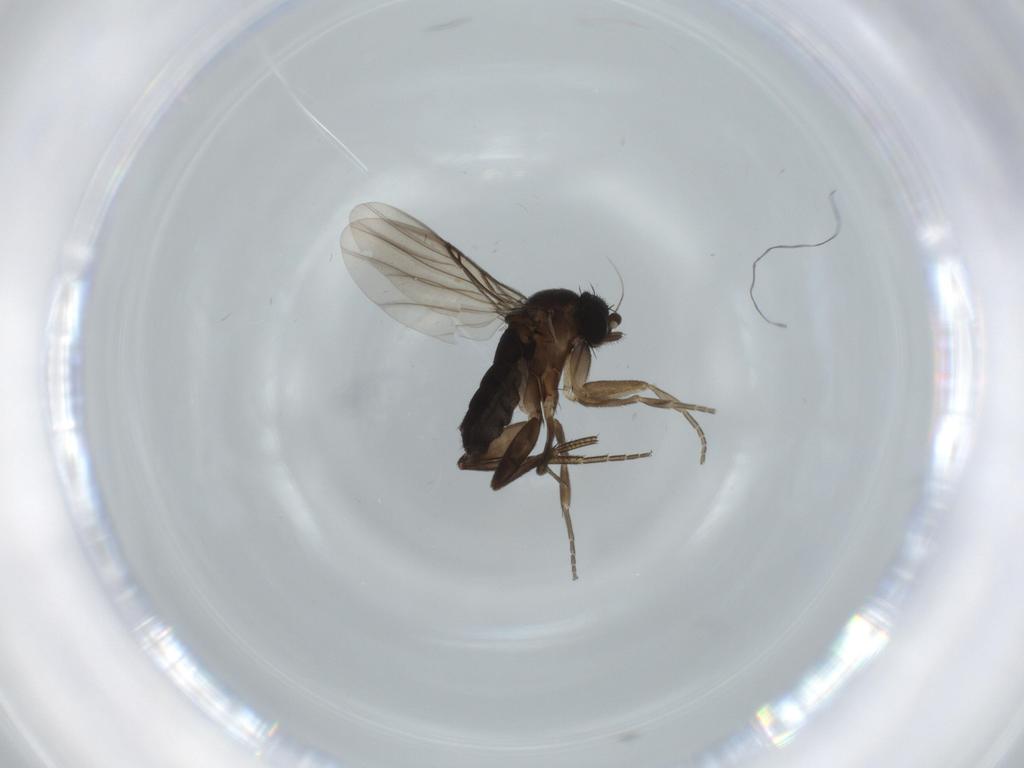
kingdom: Animalia
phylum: Arthropoda
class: Insecta
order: Diptera
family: Phoridae
